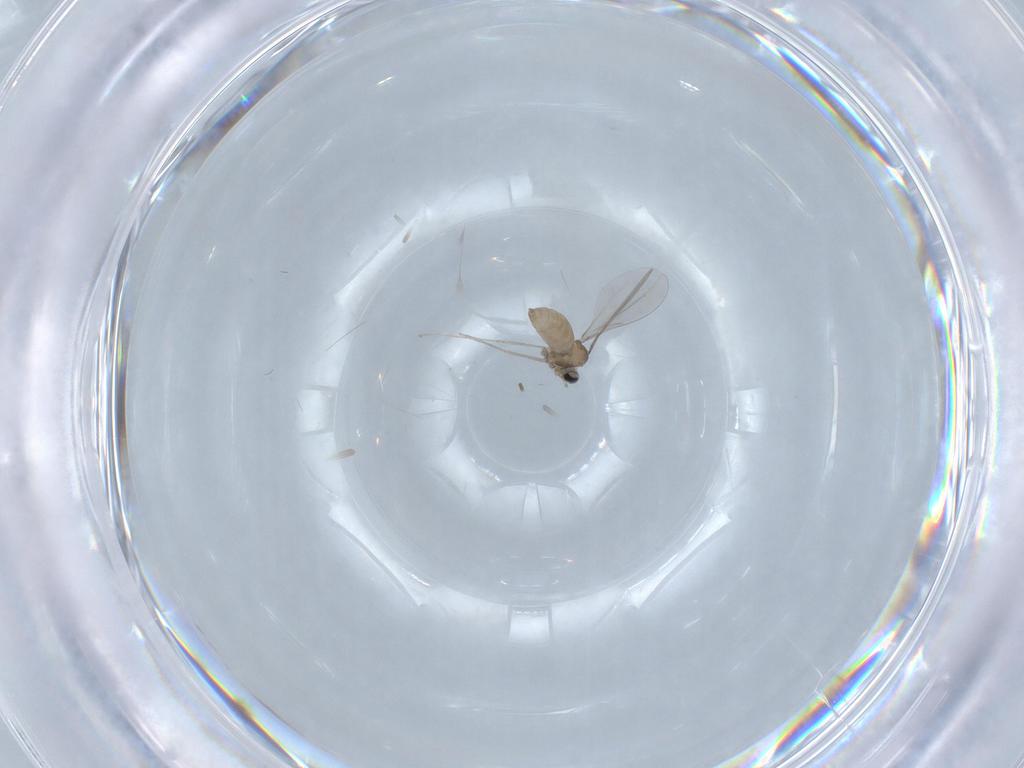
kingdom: Animalia
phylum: Arthropoda
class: Insecta
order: Diptera
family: Cecidomyiidae
